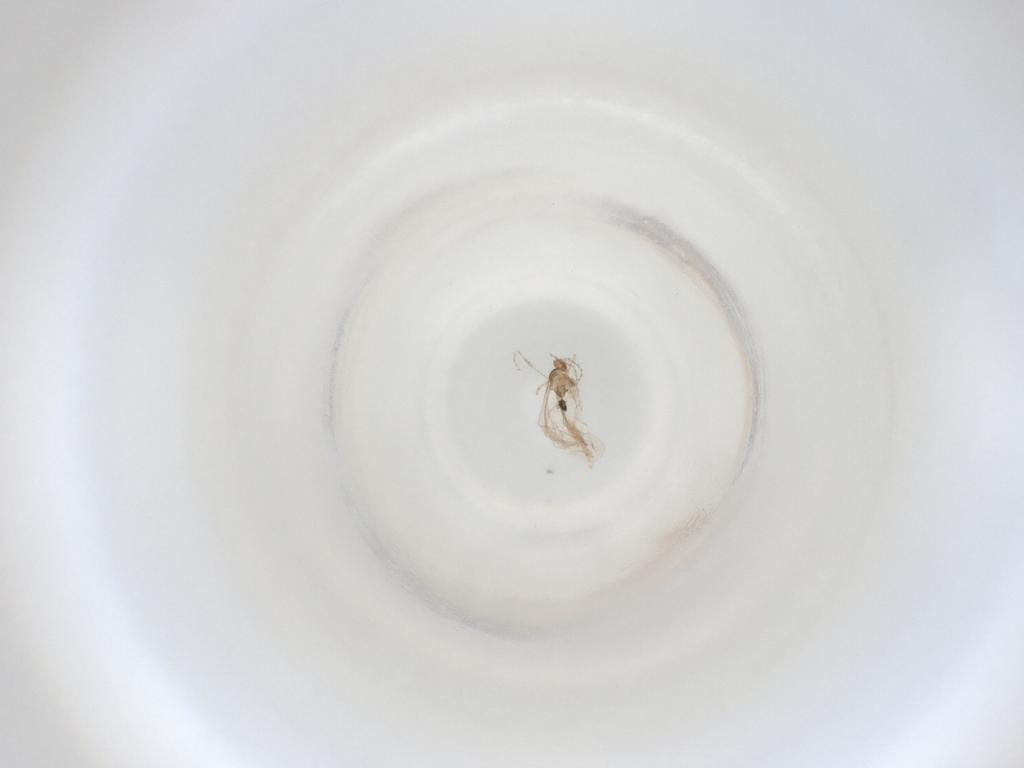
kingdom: Animalia
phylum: Arthropoda
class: Insecta
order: Diptera
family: Cecidomyiidae
